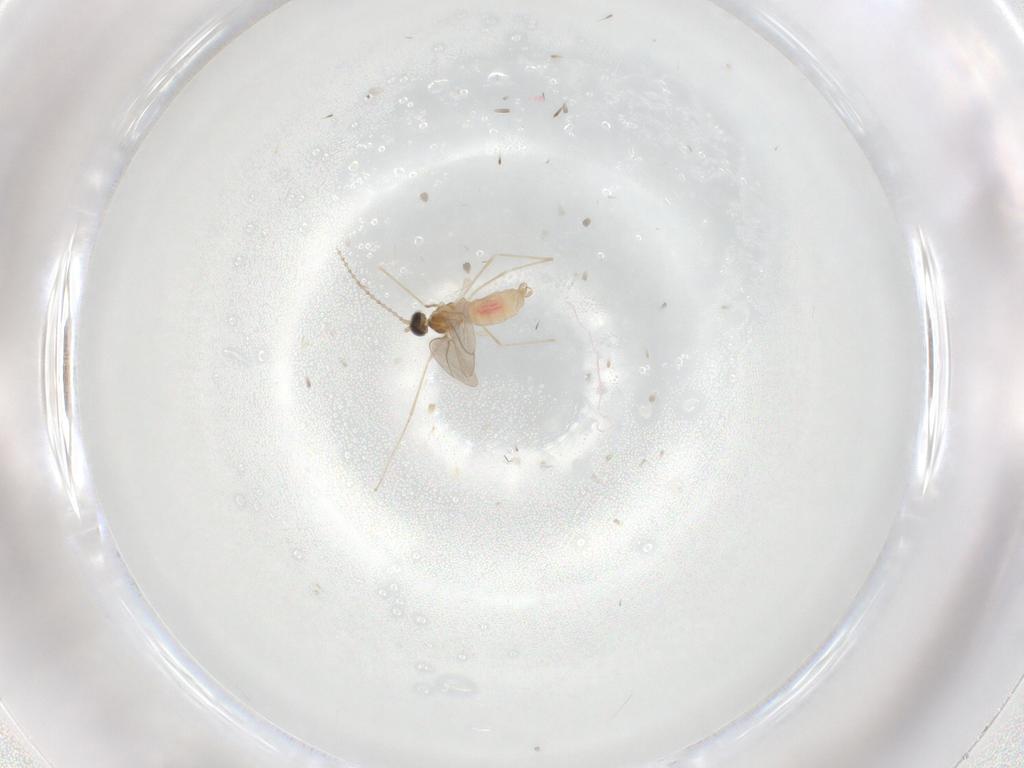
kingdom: Animalia
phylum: Arthropoda
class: Insecta
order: Diptera
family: Cecidomyiidae
